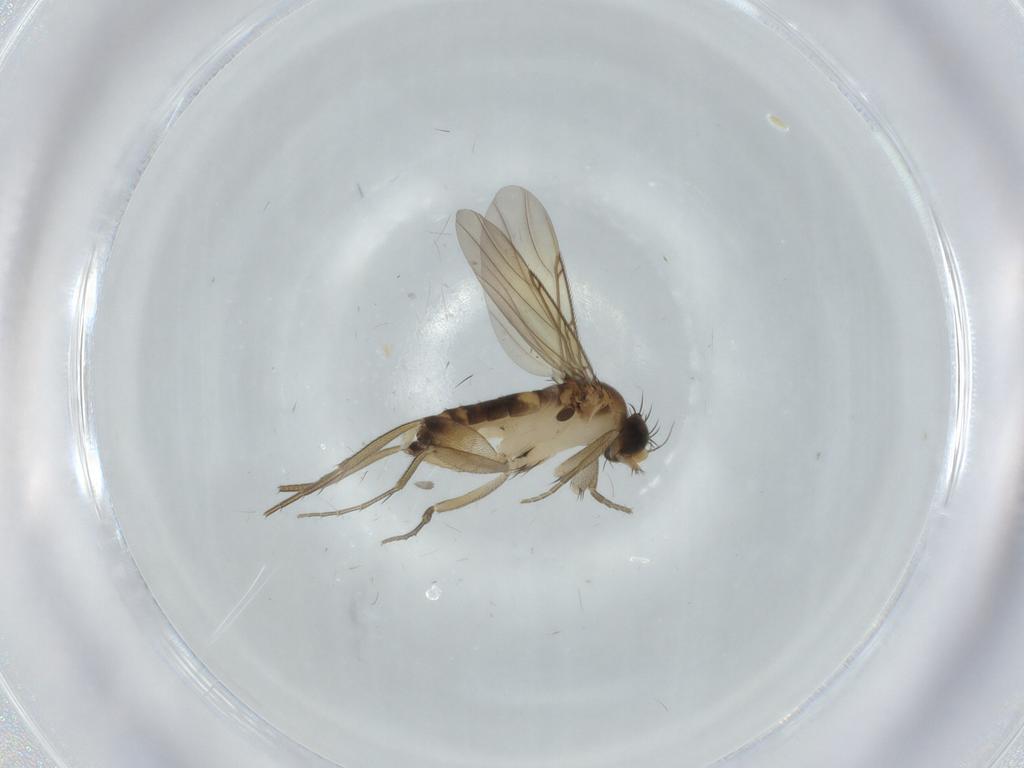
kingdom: Animalia
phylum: Arthropoda
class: Insecta
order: Diptera
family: Phoridae
